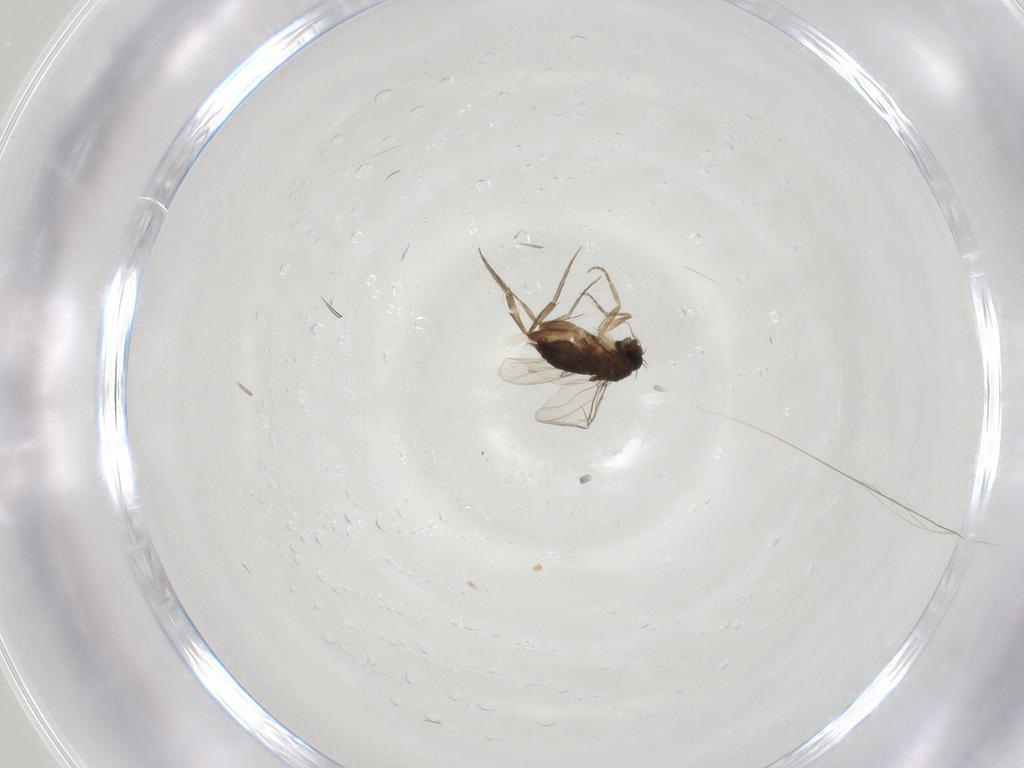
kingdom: Animalia
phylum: Arthropoda
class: Insecta
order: Diptera
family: Phoridae
